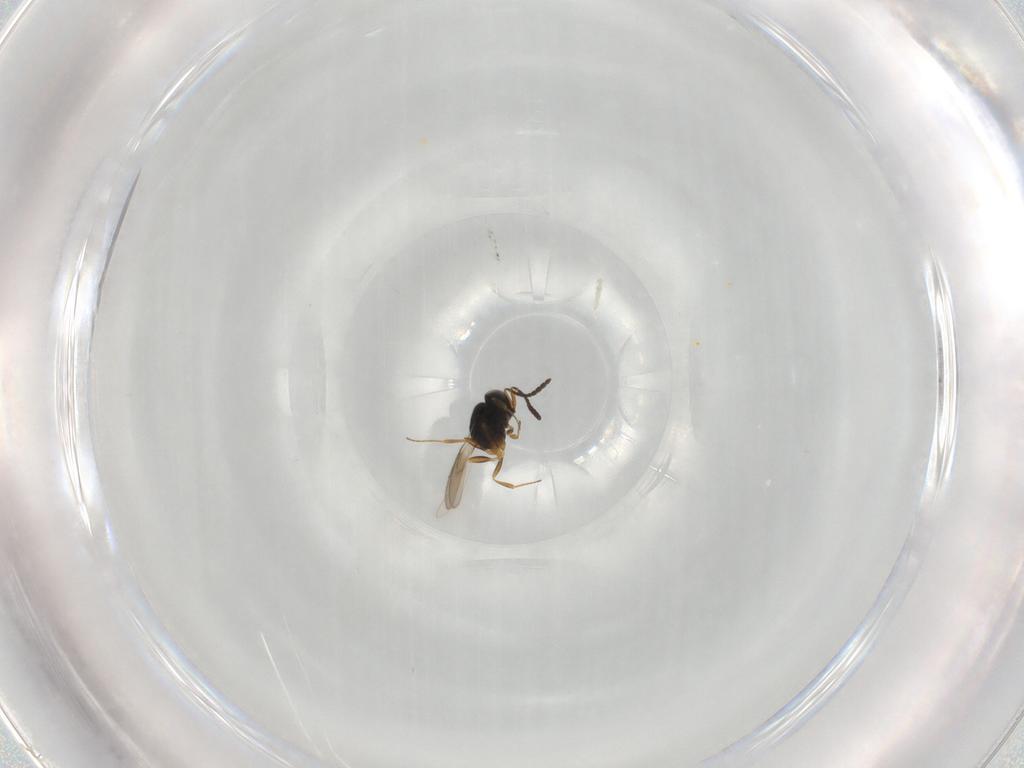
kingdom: Animalia
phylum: Arthropoda
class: Insecta
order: Hymenoptera
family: Scelionidae
